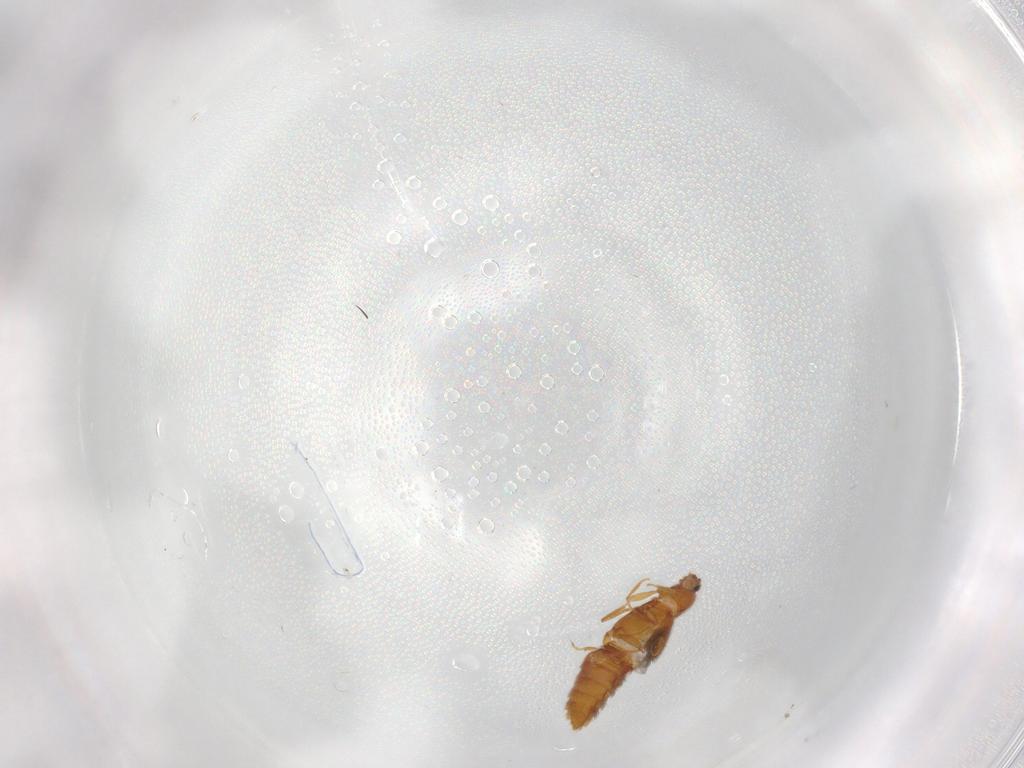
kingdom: Animalia
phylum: Arthropoda
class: Insecta
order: Coleoptera
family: Staphylinidae
